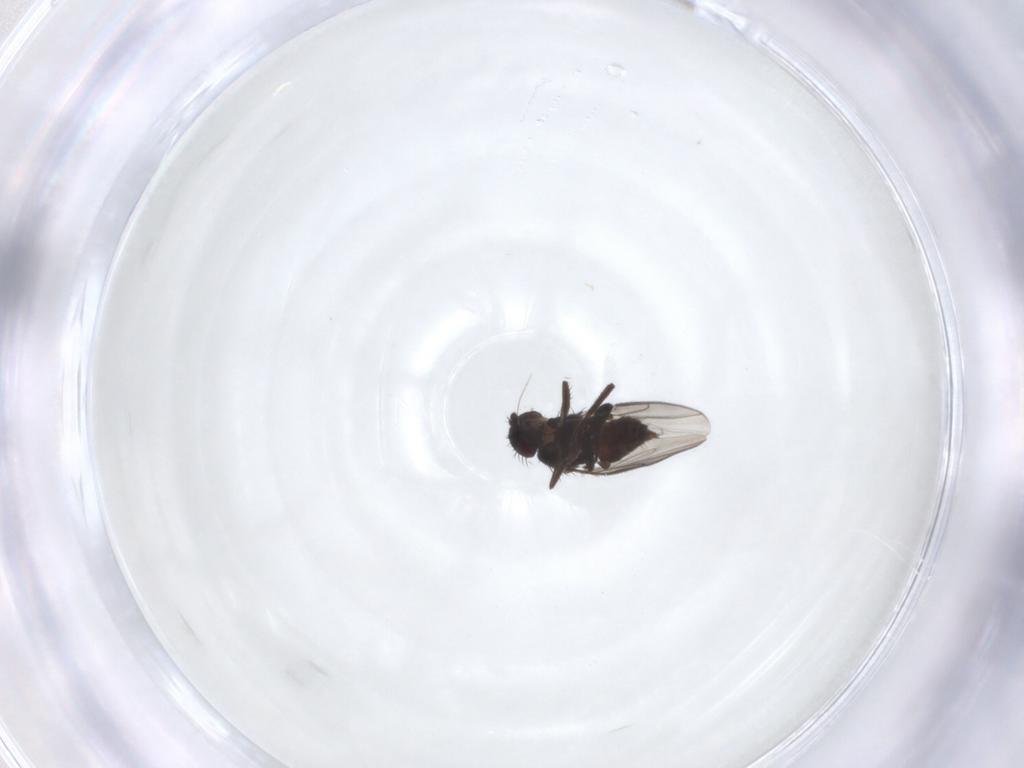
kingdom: Animalia
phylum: Arthropoda
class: Insecta
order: Diptera
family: Sphaeroceridae
